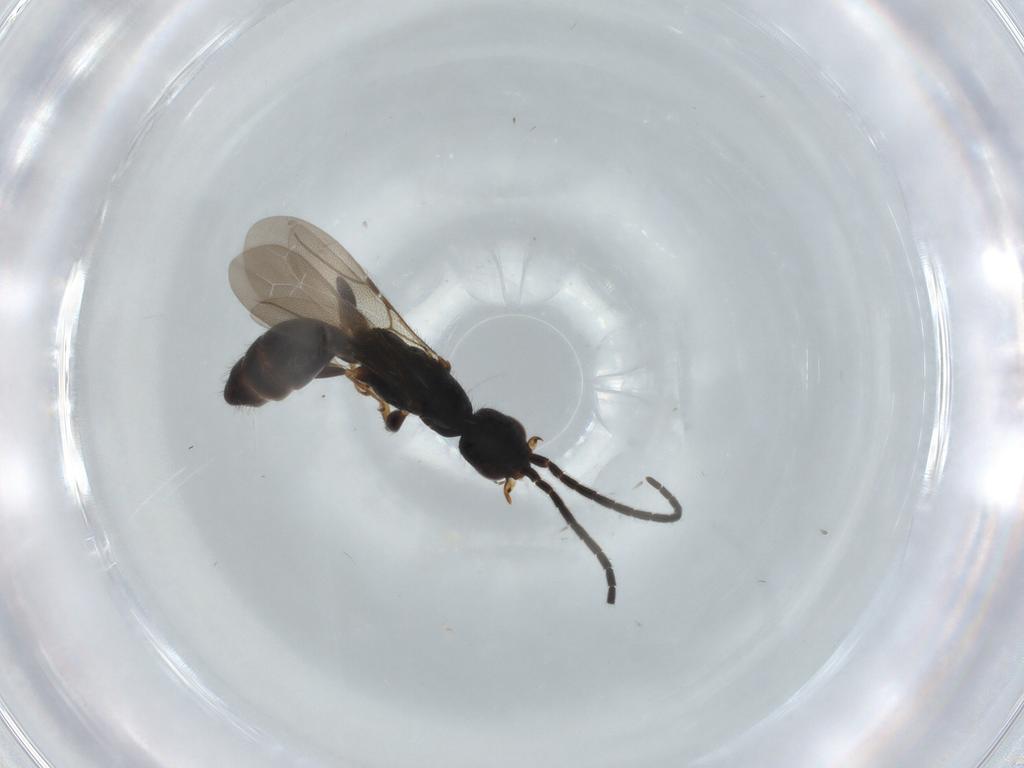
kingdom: Animalia
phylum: Arthropoda
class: Insecta
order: Hymenoptera
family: Bethylidae
